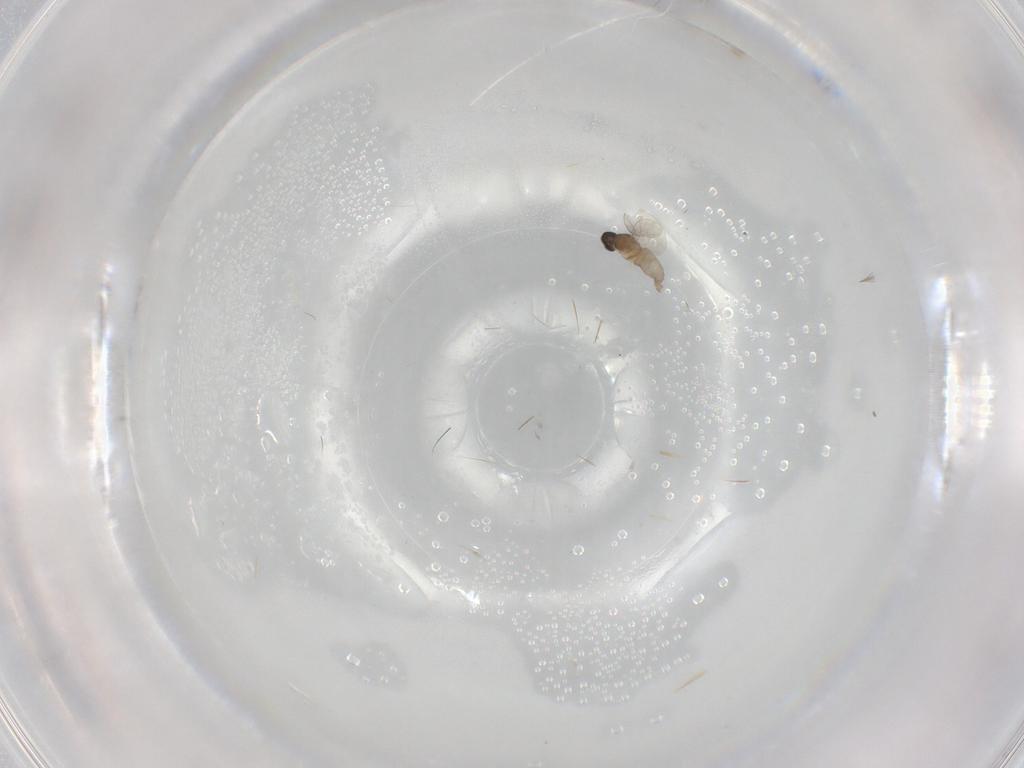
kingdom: Animalia
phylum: Arthropoda
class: Insecta
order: Diptera
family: Cecidomyiidae
